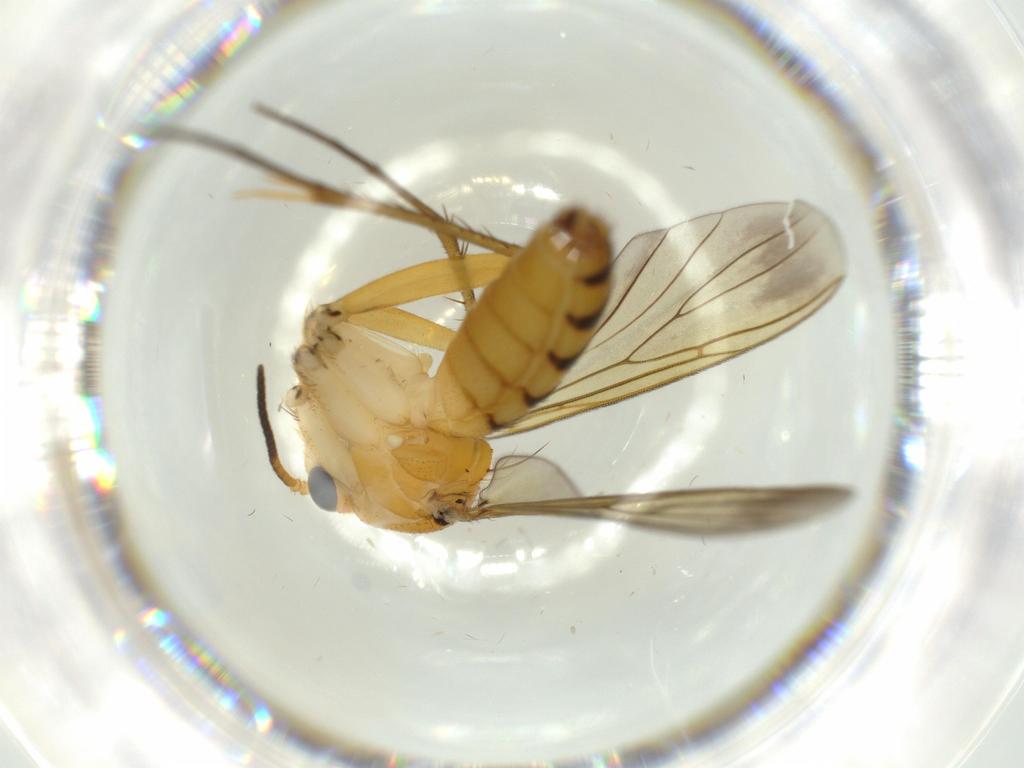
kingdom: Animalia
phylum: Arthropoda
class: Insecta
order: Diptera
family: Mycetophilidae
